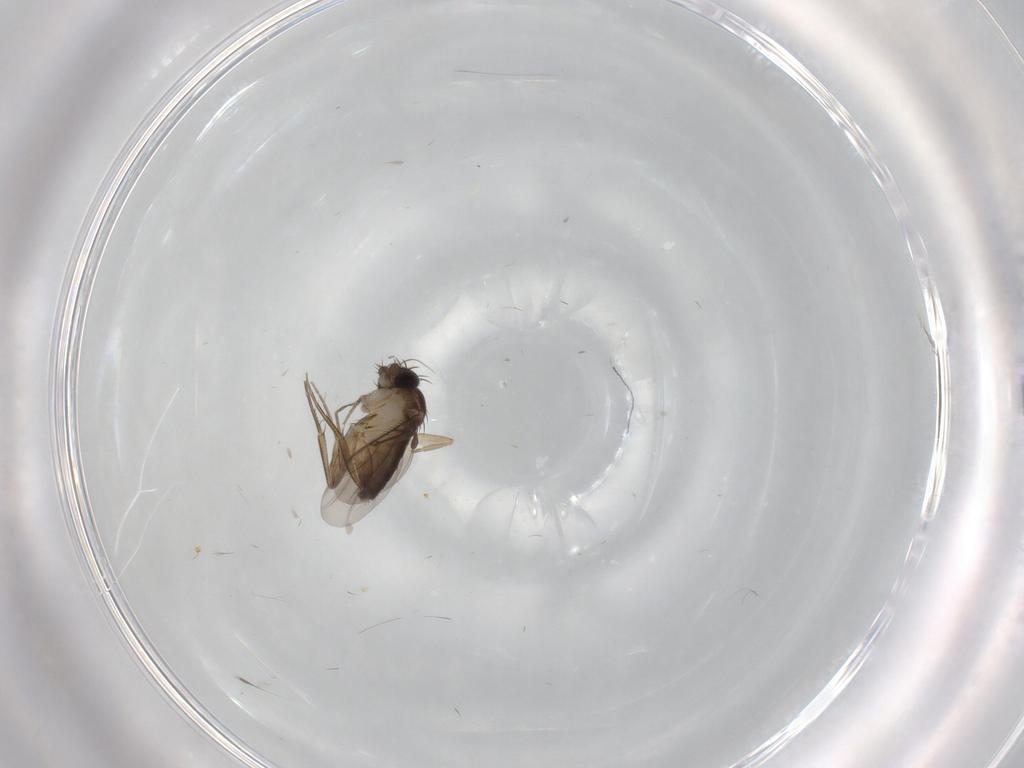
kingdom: Animalia
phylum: Arthropoda
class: Insecta
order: Diptera
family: Phoridae
